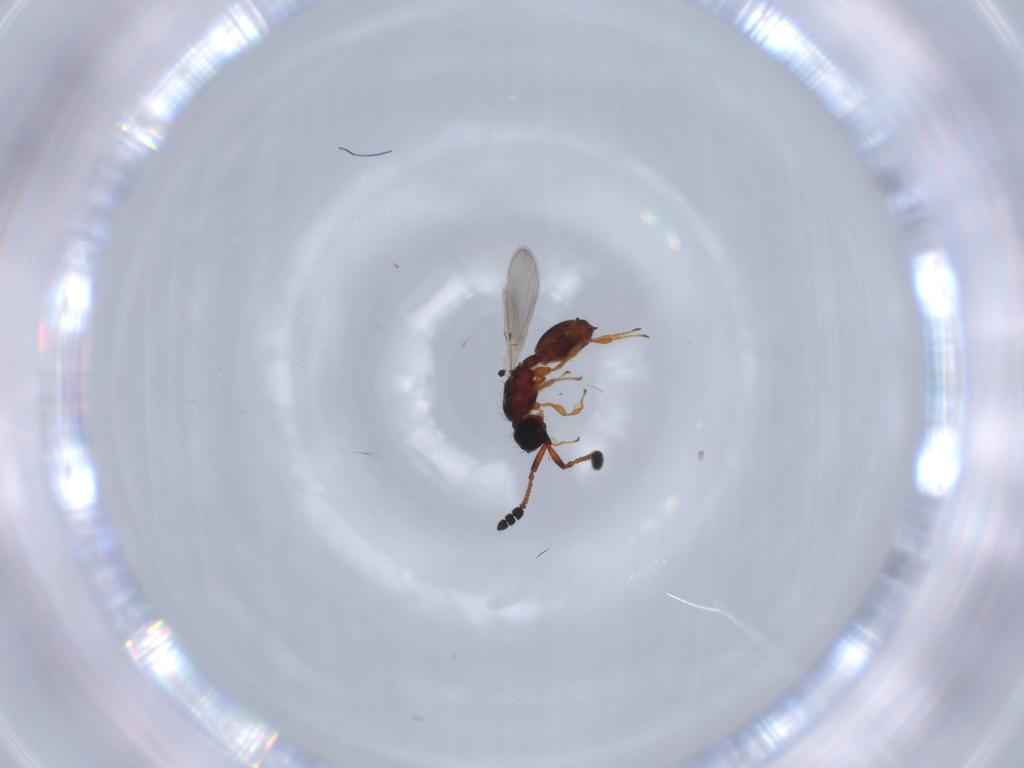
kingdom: Animalia
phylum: Arthropoda
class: Insecta
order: Hymenoptera
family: Diapriidae
